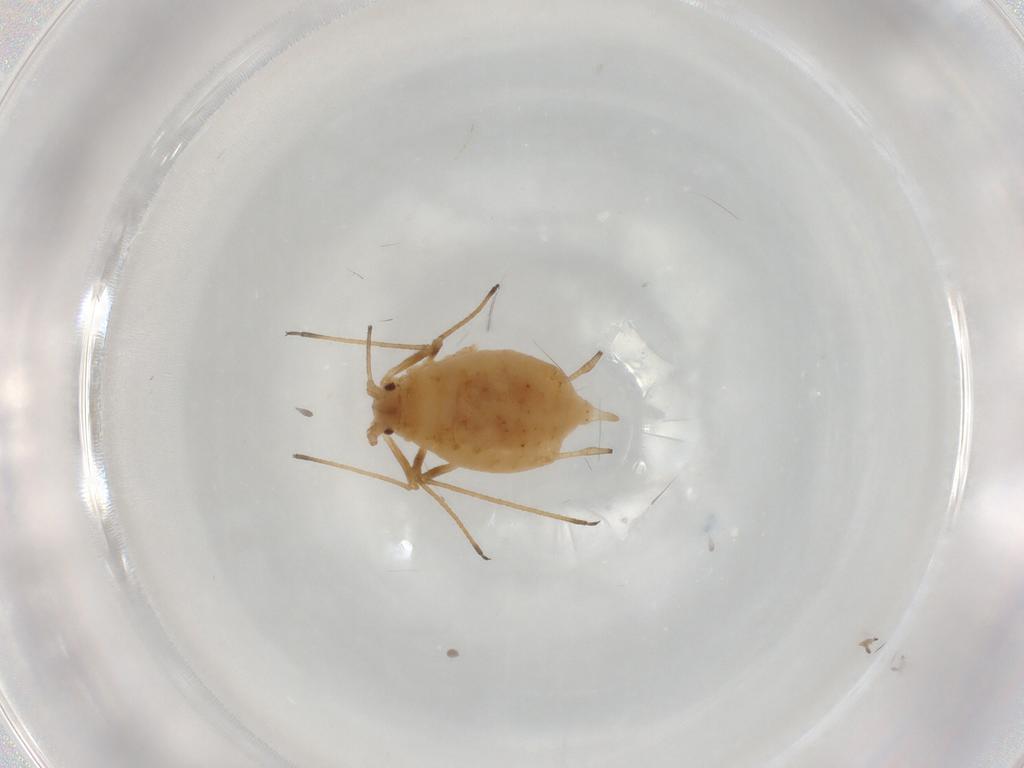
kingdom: Animalia
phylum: Arthropoda
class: Insecta
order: Hemiptera
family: Aphididae
